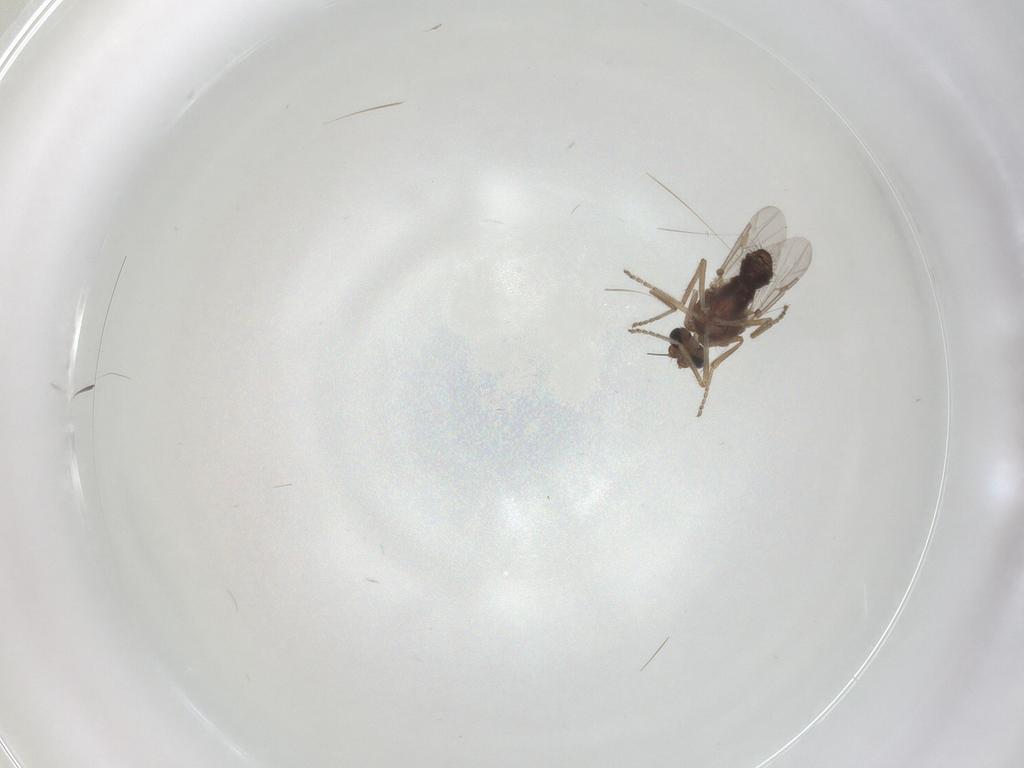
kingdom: Animalia
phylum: Arthropoda
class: Insecta
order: Diptera
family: Ceratopogonidae
